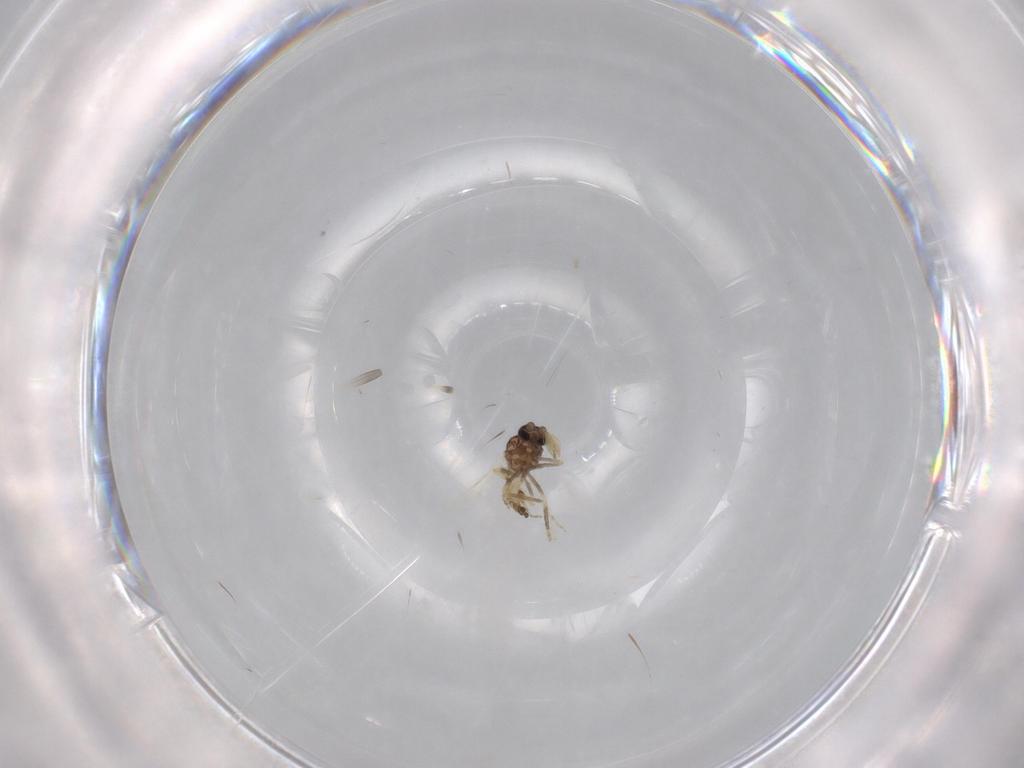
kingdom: Animalia
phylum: Arthropoda
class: Insecta
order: Diptera
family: Ceratopogonidae
